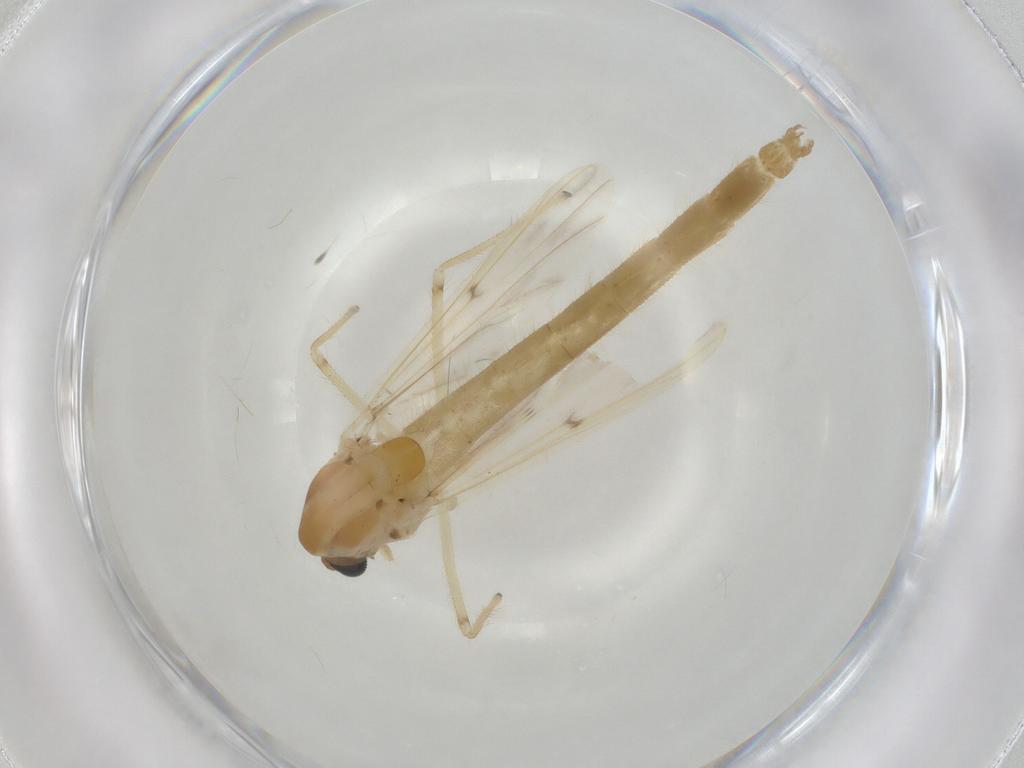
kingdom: Animalia
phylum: Arthropoda
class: Insecta
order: Diptera
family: Chironomidae
